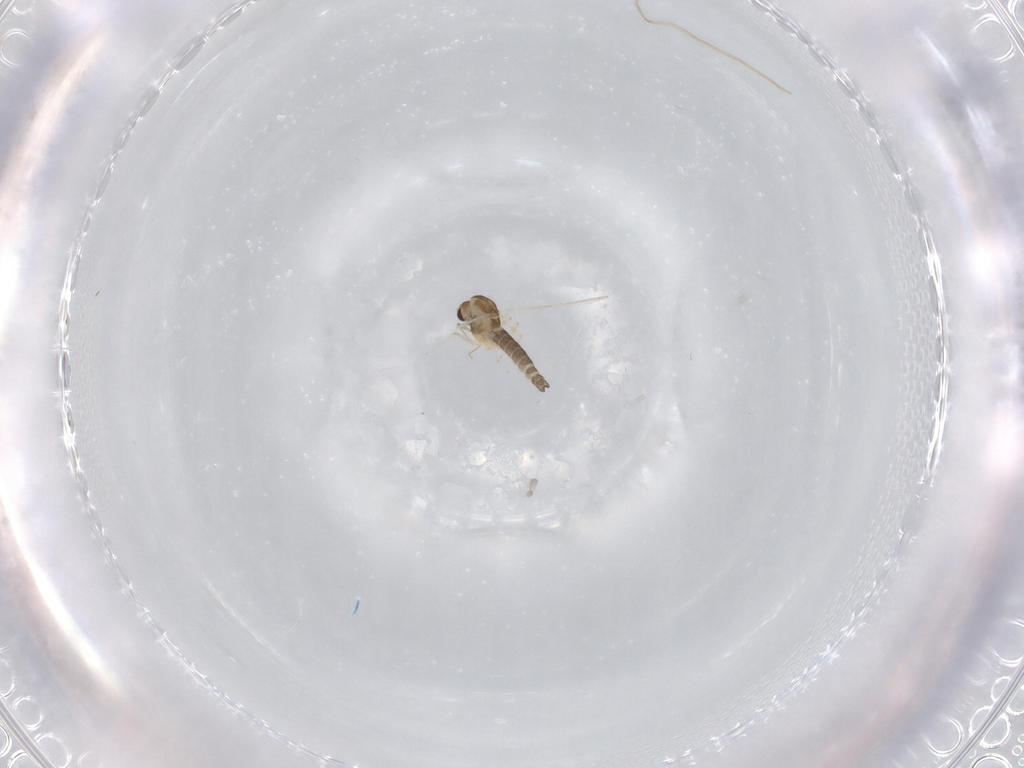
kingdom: Animalia
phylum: Arthropoda
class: Insecta
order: Diptera
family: Chironomidae
